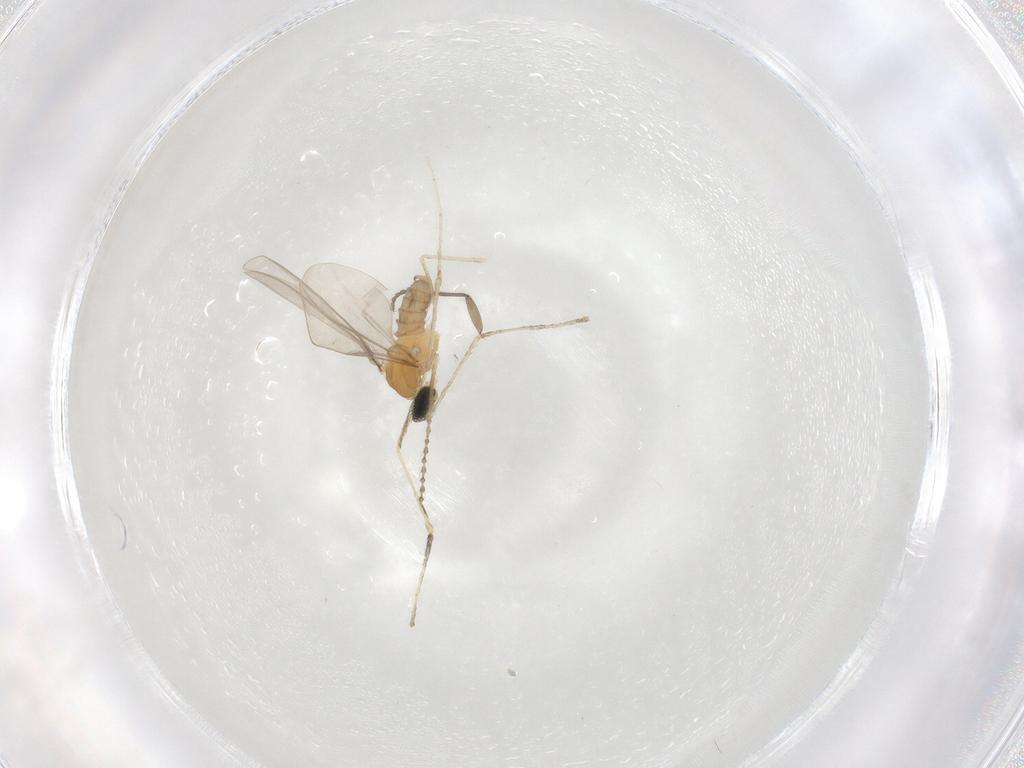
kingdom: Animalia
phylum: Arthropoda
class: Insecta
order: Diptera
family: Cecidomyiidae
